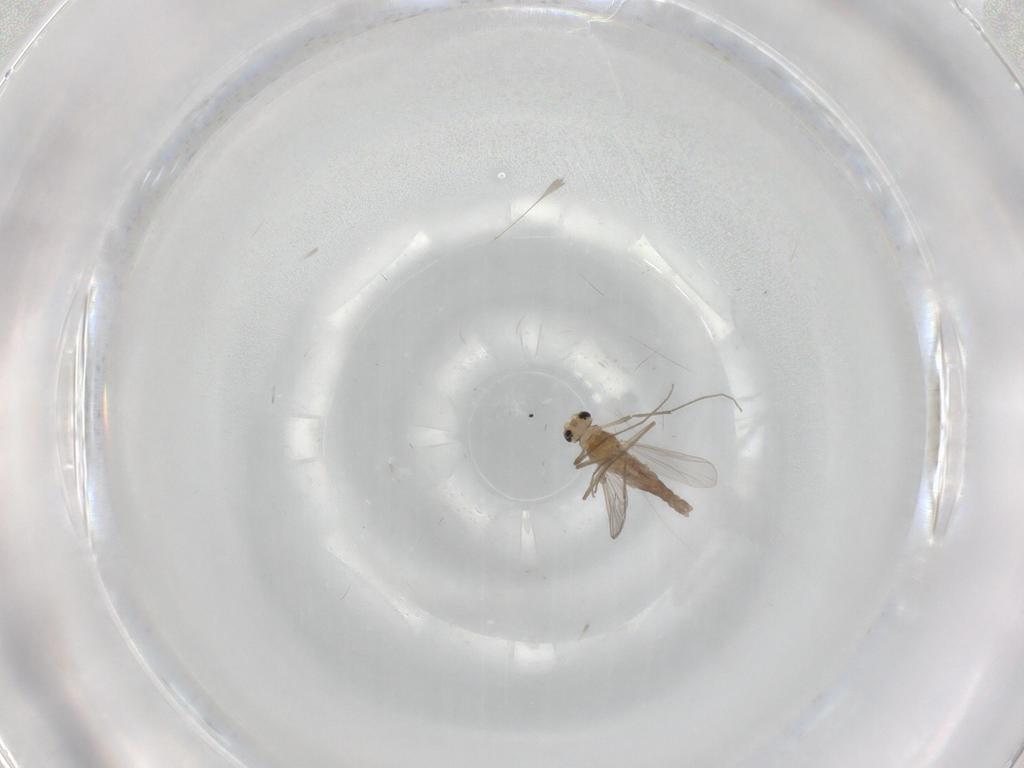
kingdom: Animalia
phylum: Arthropoda
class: Insecta
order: Diptera
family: Chironomidae
